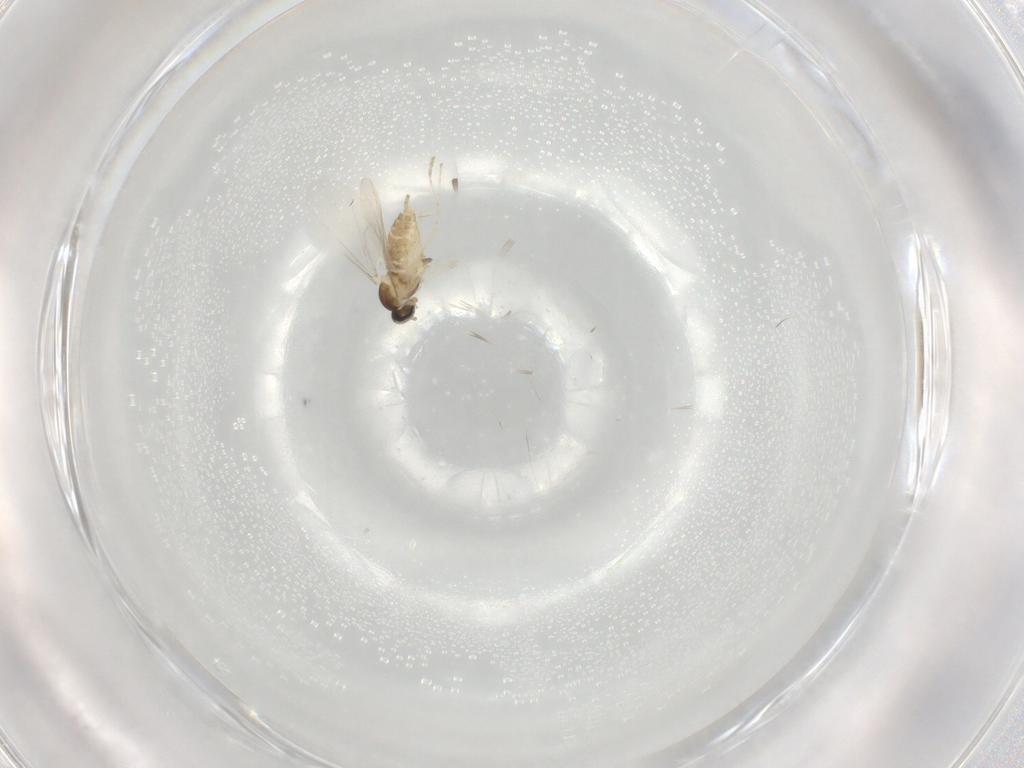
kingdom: Animalia
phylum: Arthropoda
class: Insecta
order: Diptera
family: Cecidomyiidae
